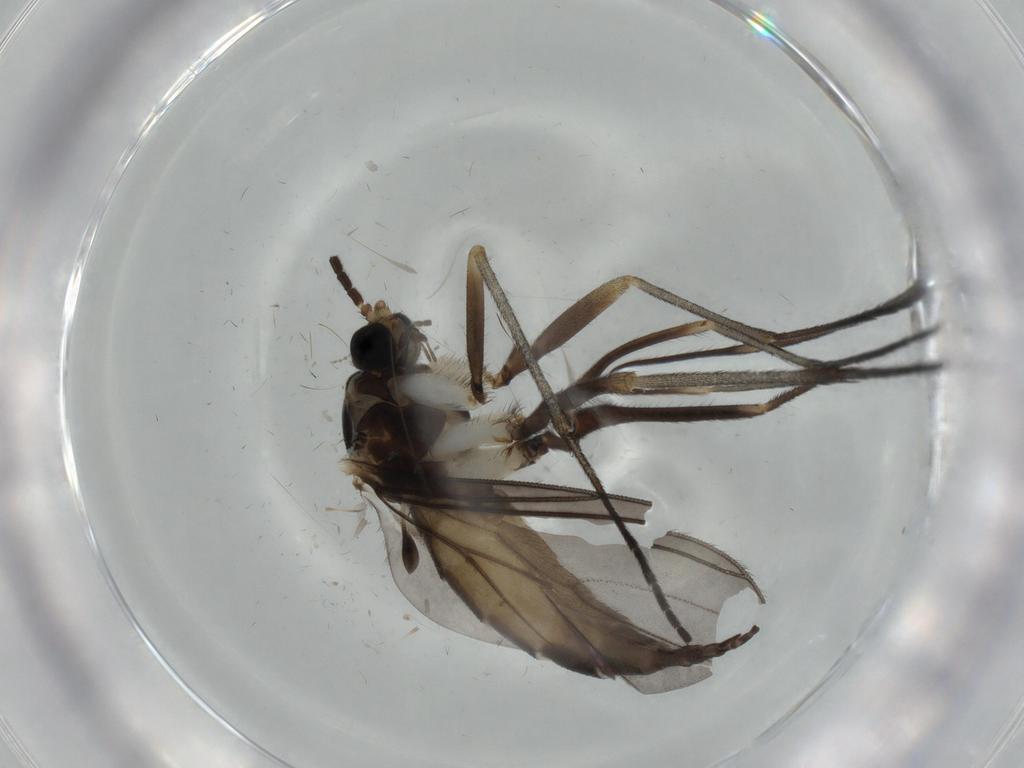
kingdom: Animalia
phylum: Arthropoda
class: Insecta
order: Diptera
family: Sciaridae
